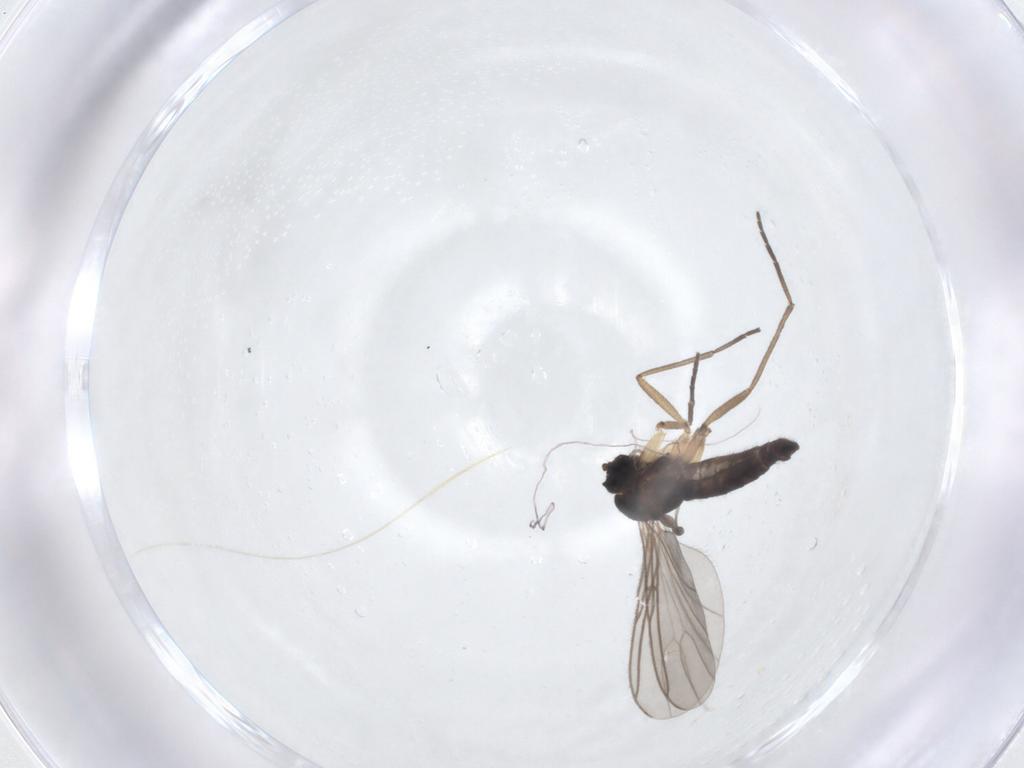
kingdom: Animalia
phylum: Arthropoda
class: Insecta
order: Diptera
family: Sciaridae
